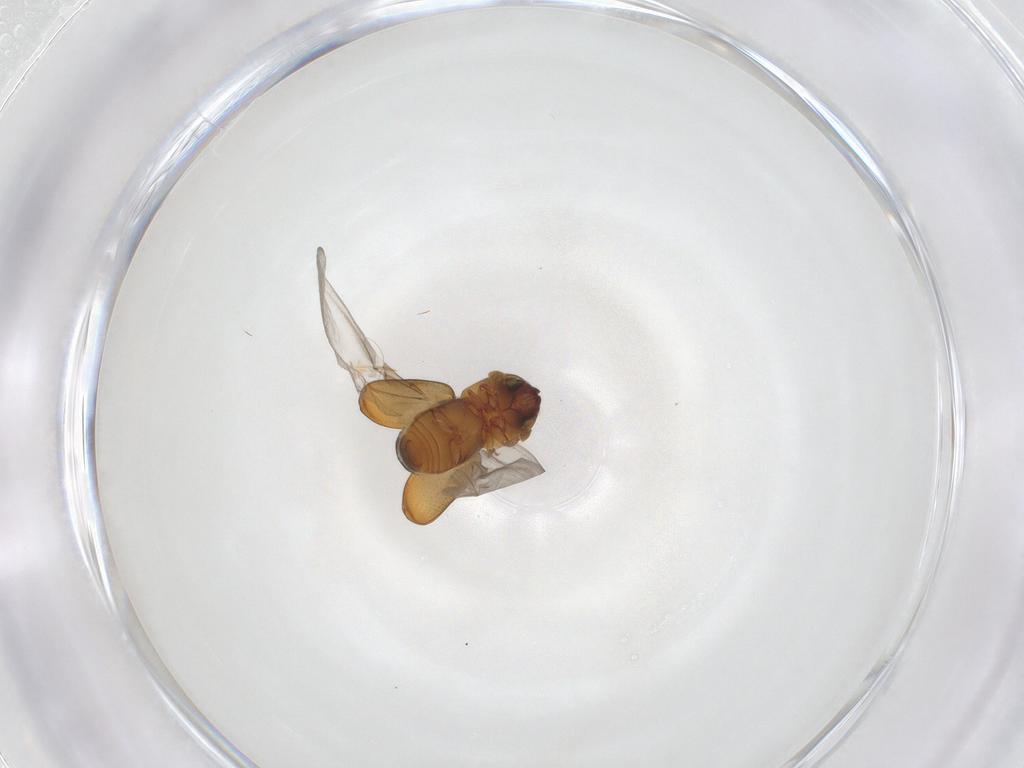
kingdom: Animalia
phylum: Arthropoda
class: Insecta
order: Coleoptera
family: Curculionidae
